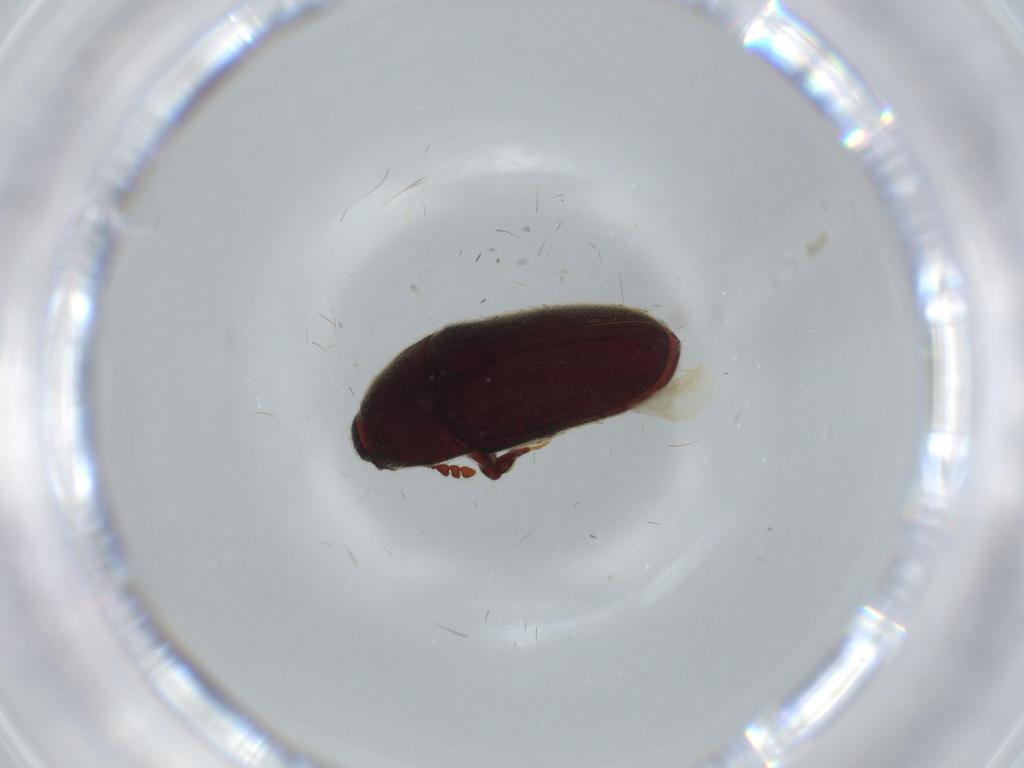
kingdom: Animalia
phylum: Arthropoda
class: Insecta
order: Coleoptera
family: Throscidae
